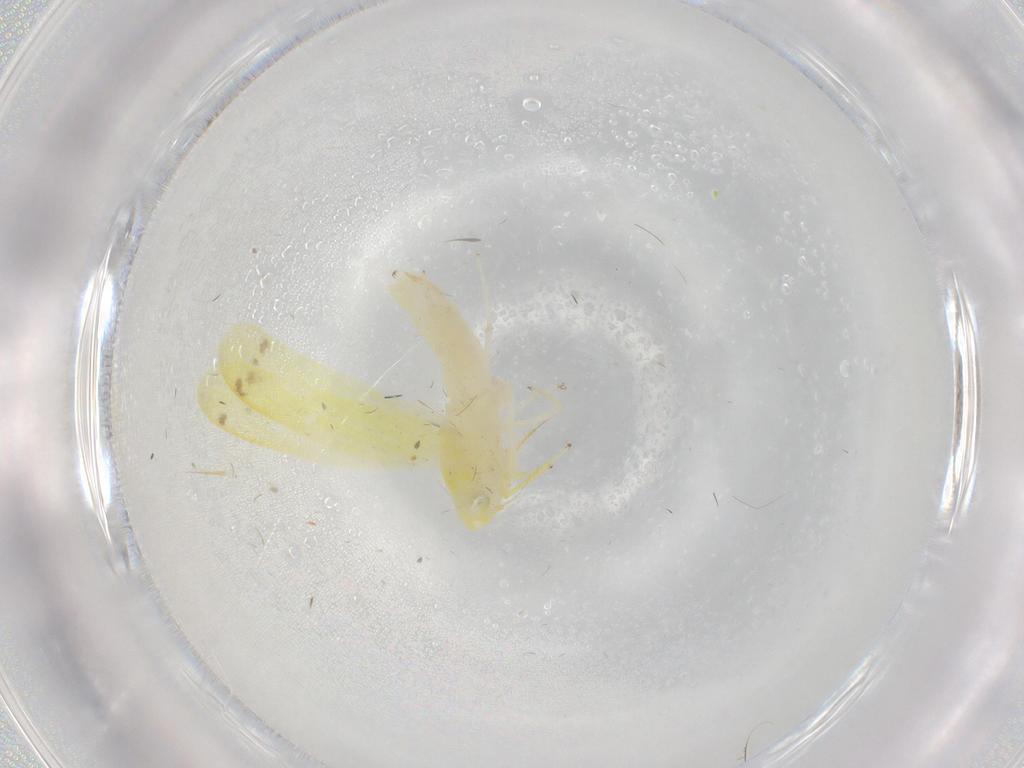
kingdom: Animalia
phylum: Arthropoda
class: Insecta
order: Hemiptera
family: Cicadellidae
